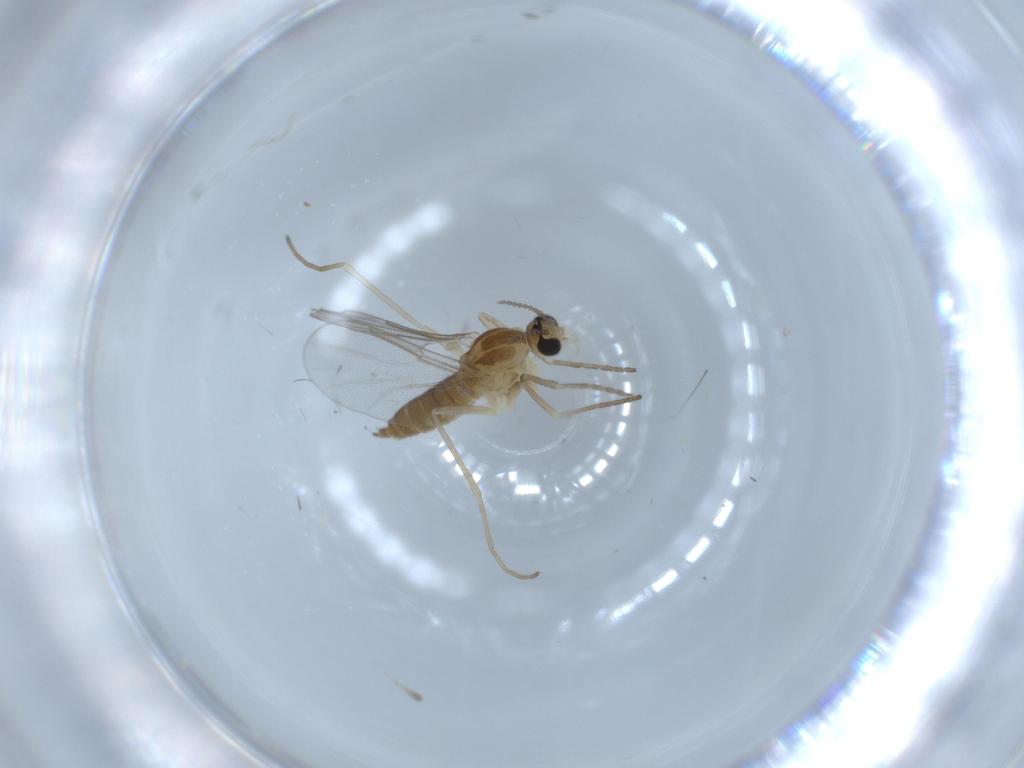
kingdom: Animalia
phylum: Arthropoda
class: Insecta
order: Diptera
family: Cecidomyiidae
